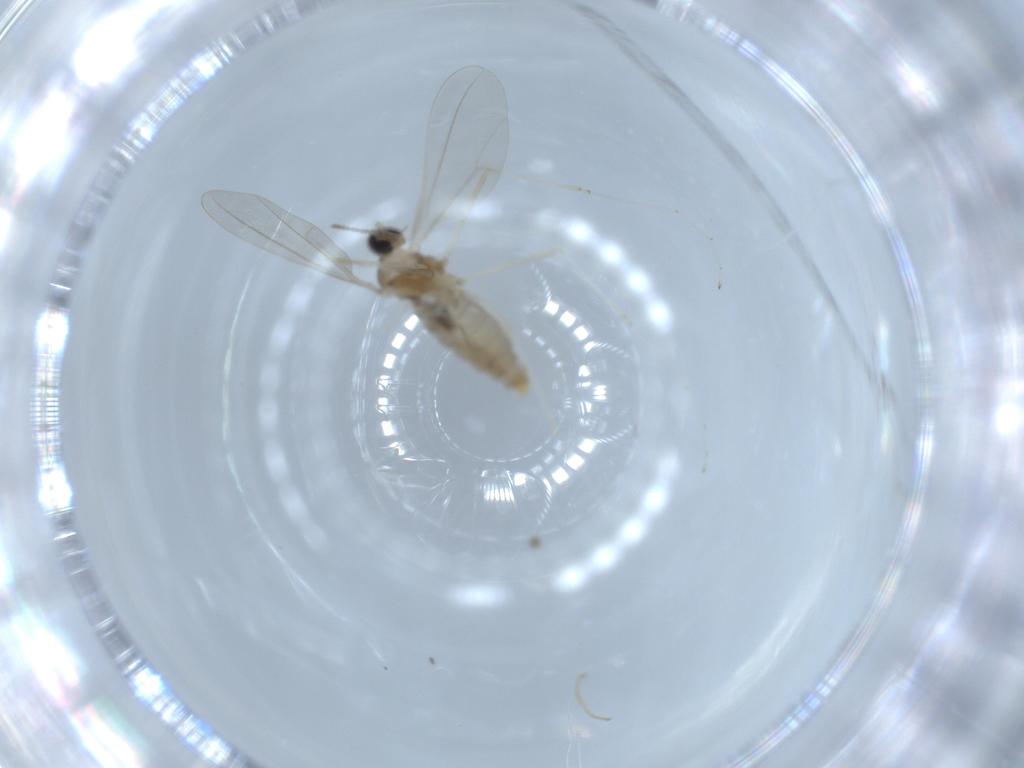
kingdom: Animalia
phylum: Arthropoda
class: Insecta
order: Diptera
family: Cecidomyiidae
